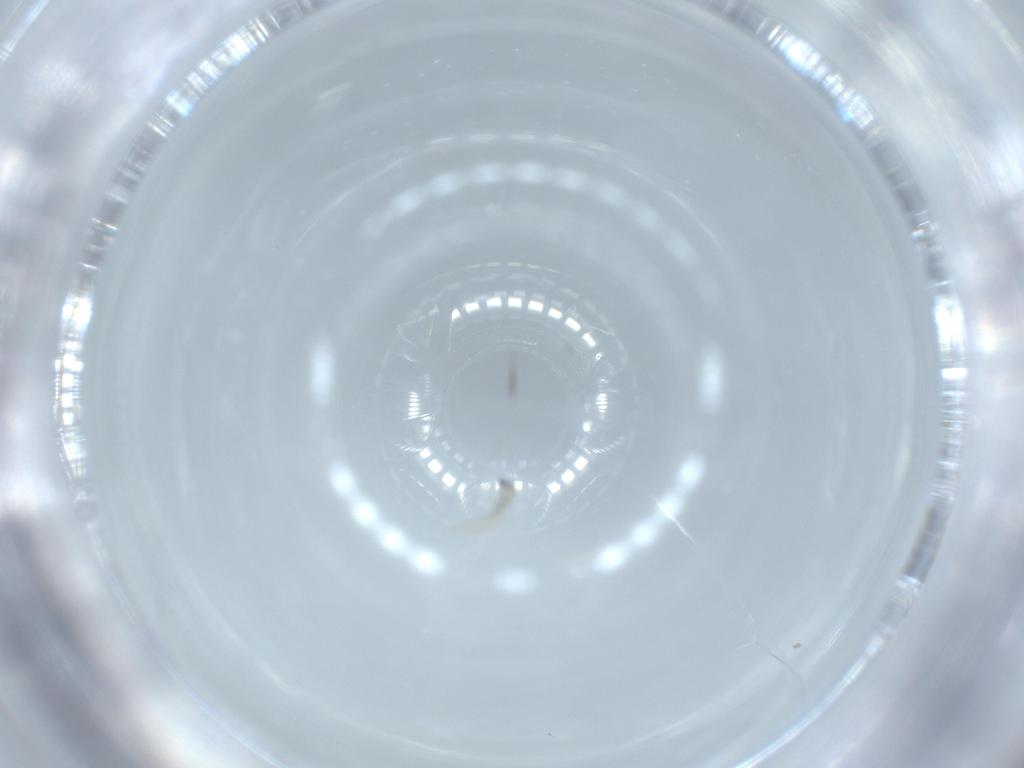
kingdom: Animalia
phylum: Arthropoda
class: Insecta
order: Diptera
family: Tachinidae
